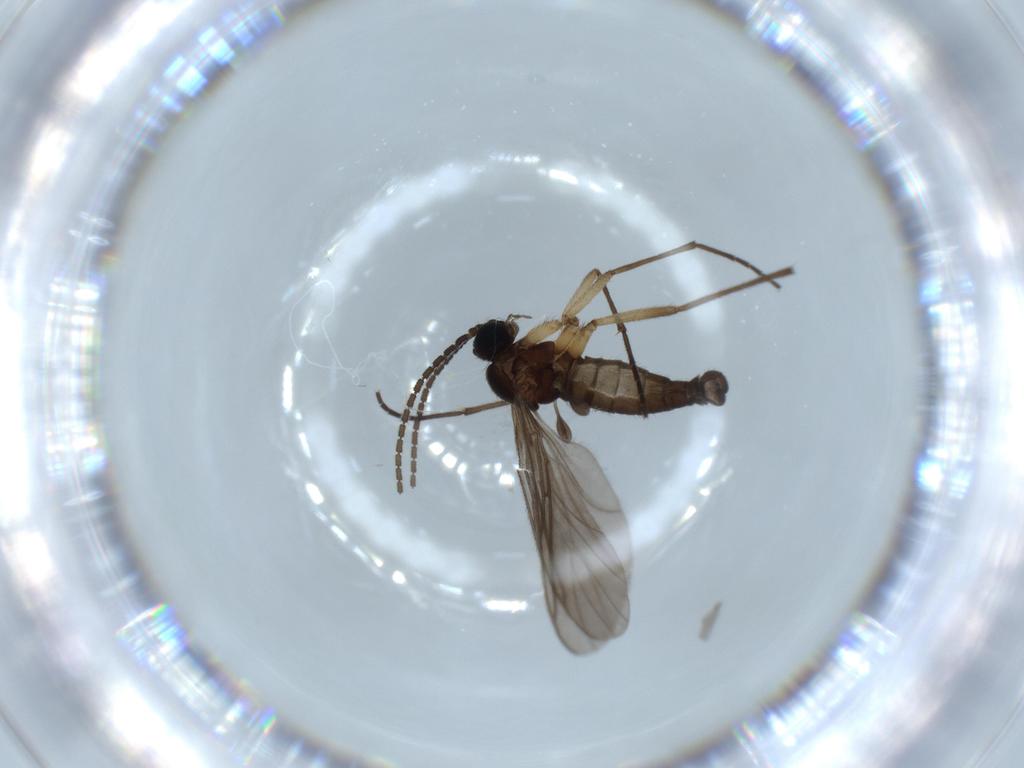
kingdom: Animalia
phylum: Arthropoda
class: Insecta
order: Diptera
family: Sciaridae
